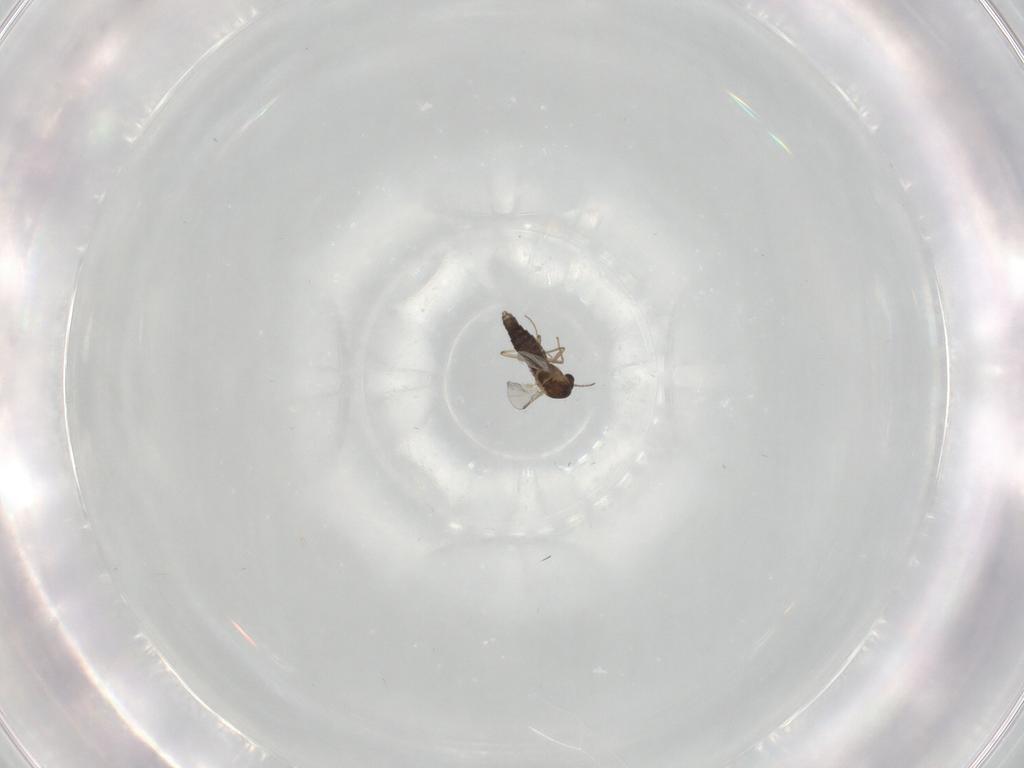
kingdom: Animalia
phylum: Arthropoda
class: Insecta
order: Diptera
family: Chironomidae
